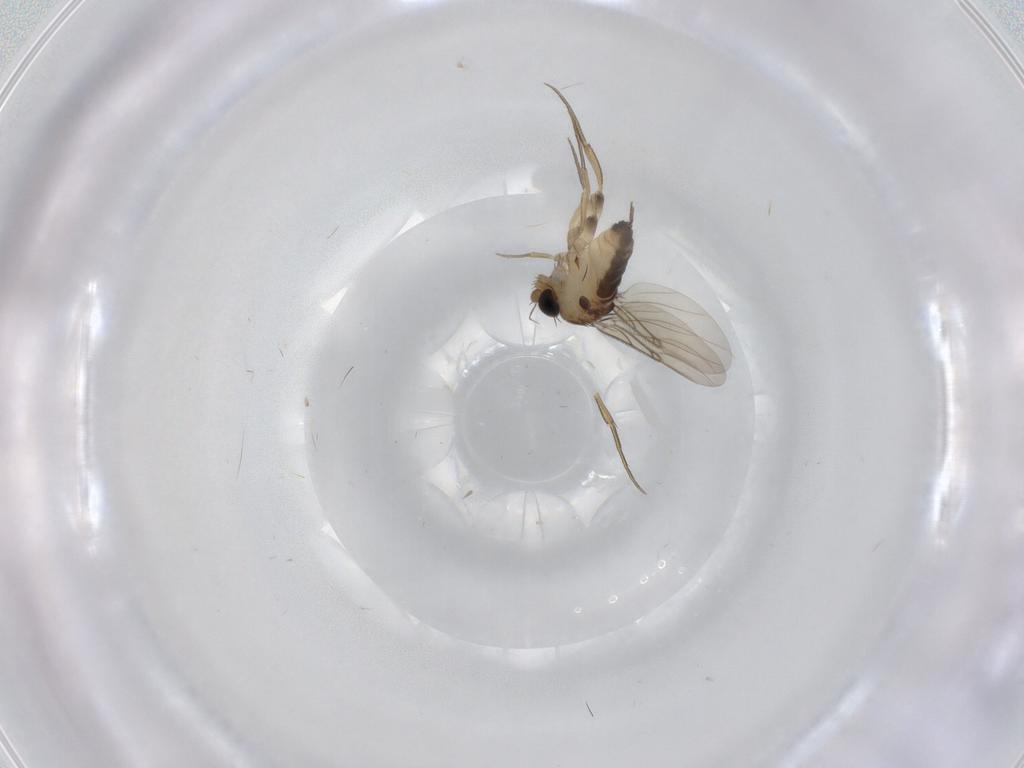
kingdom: Animalia
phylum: Arthropoda
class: Insecta
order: Diptera
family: Phoridae
